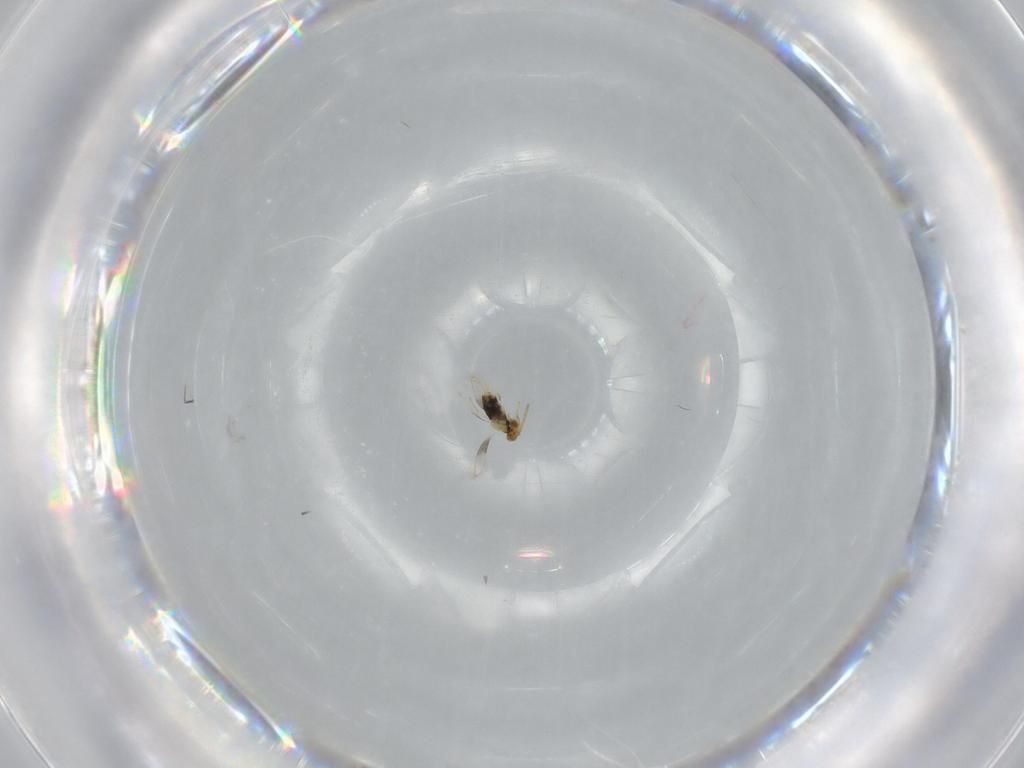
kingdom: Animalia
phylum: Arthropoda
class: Insecta
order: Hymenoptera
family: Aphelinidae
